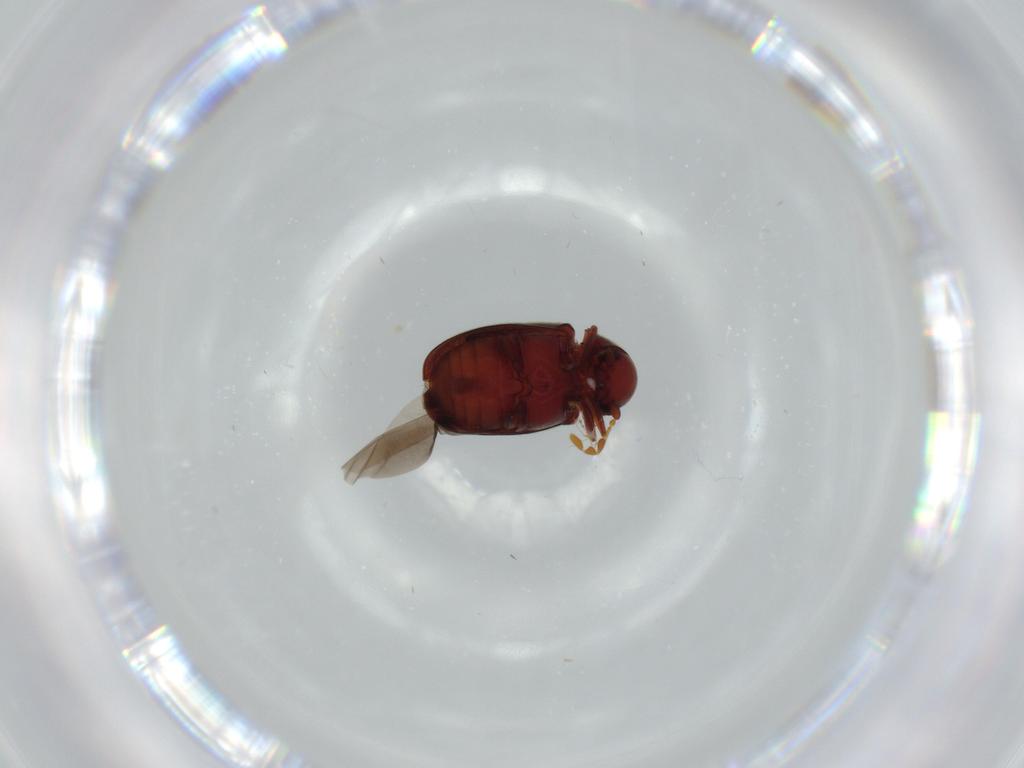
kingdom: Animalia
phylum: Arthropoda
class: Insecta
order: Coleoptera
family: Ptinidae
